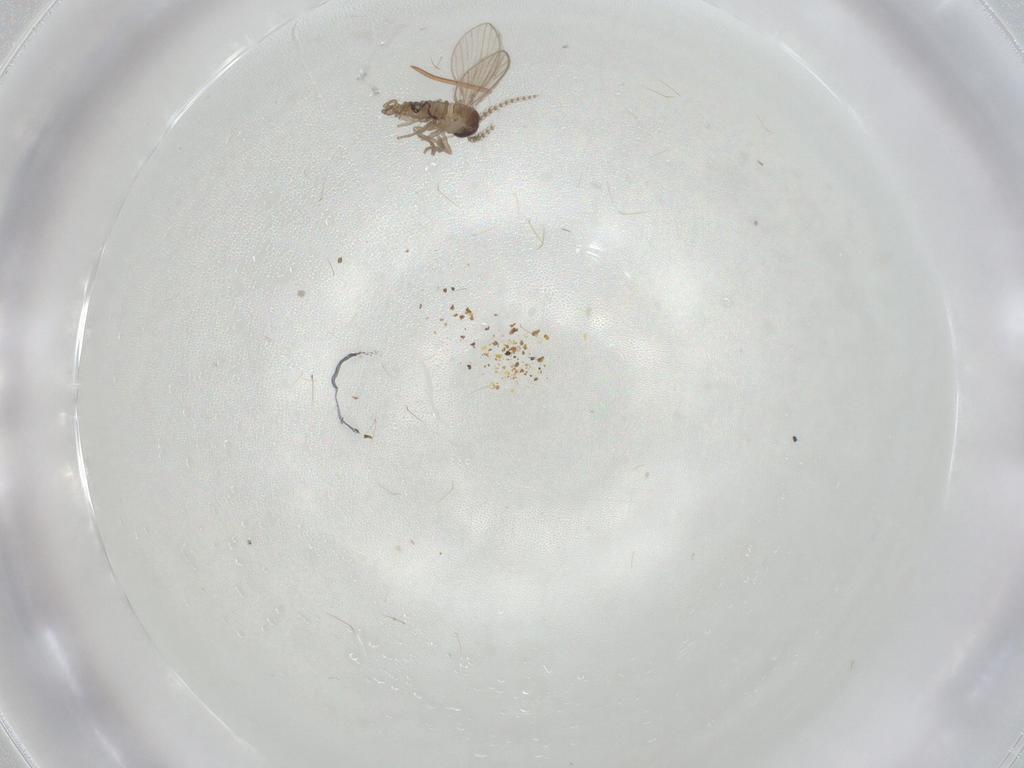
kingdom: Animalia
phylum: Arthropoda
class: Insecta
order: Diptera
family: Psychodidae
